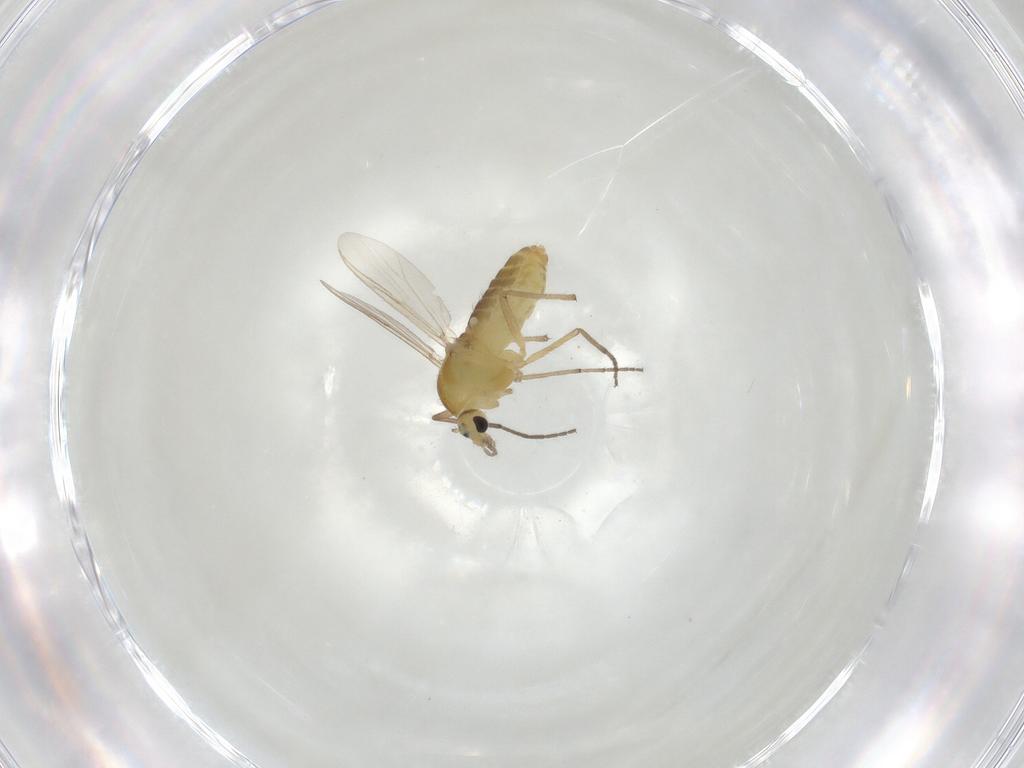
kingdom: Animalia
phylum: Arthropoda
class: Insecta
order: Diptera
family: Chironomidae
